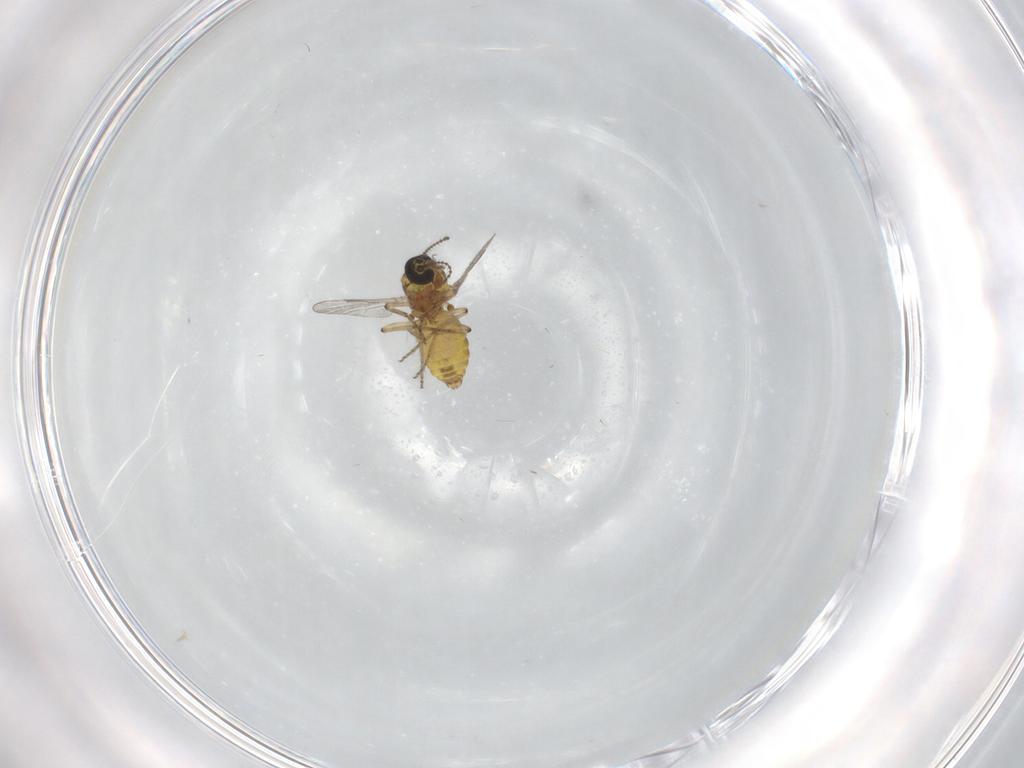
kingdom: Animalia
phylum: Arthropoda
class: Insecta
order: Diptera
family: Ceratopogonidae
